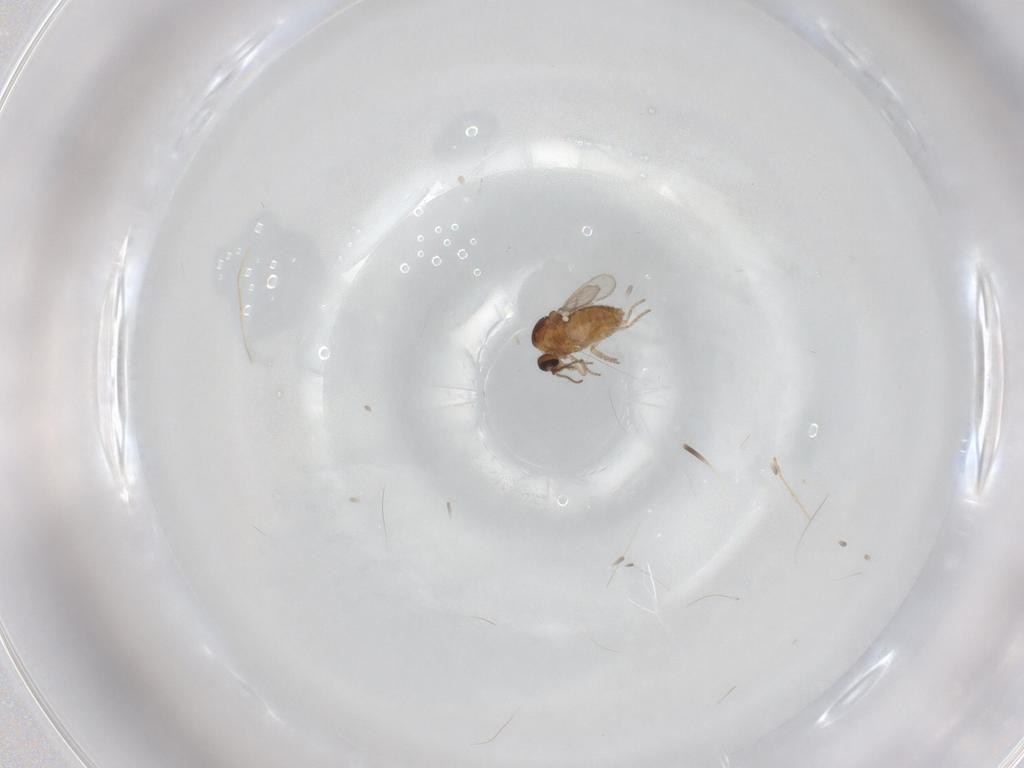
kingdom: Animalia
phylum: Arthropoda
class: Insecta
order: Diptera
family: Ceratopogonidae
